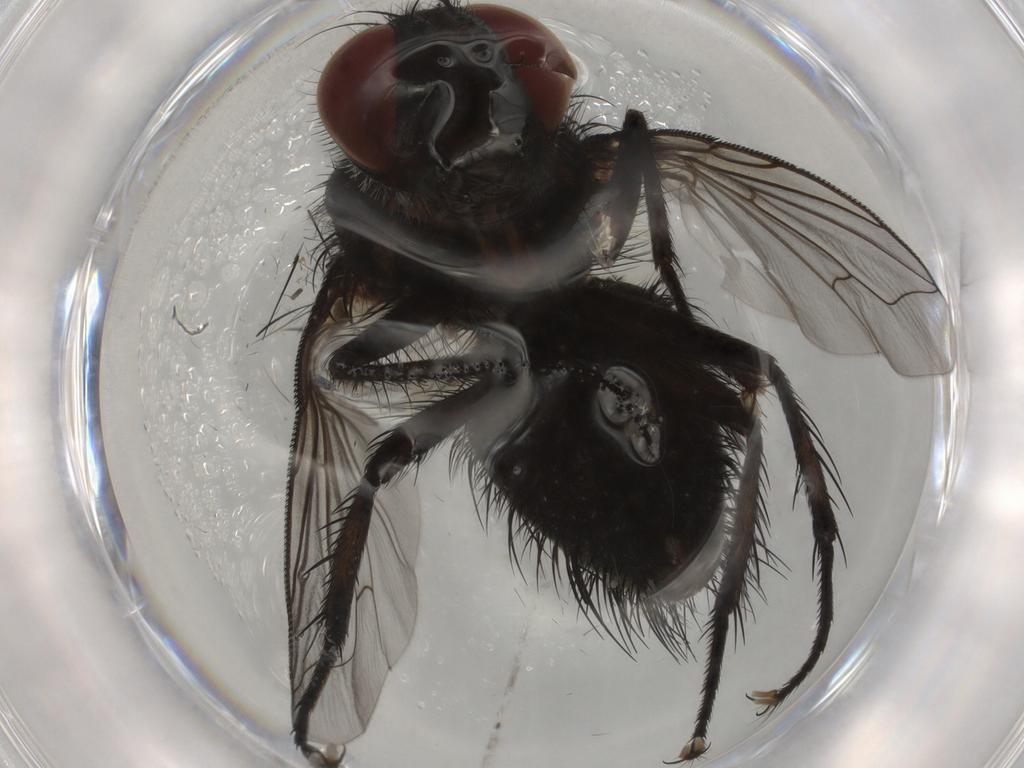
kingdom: Animalia
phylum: Arthropoda
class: Insecta
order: Diptera
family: Tachinidae
